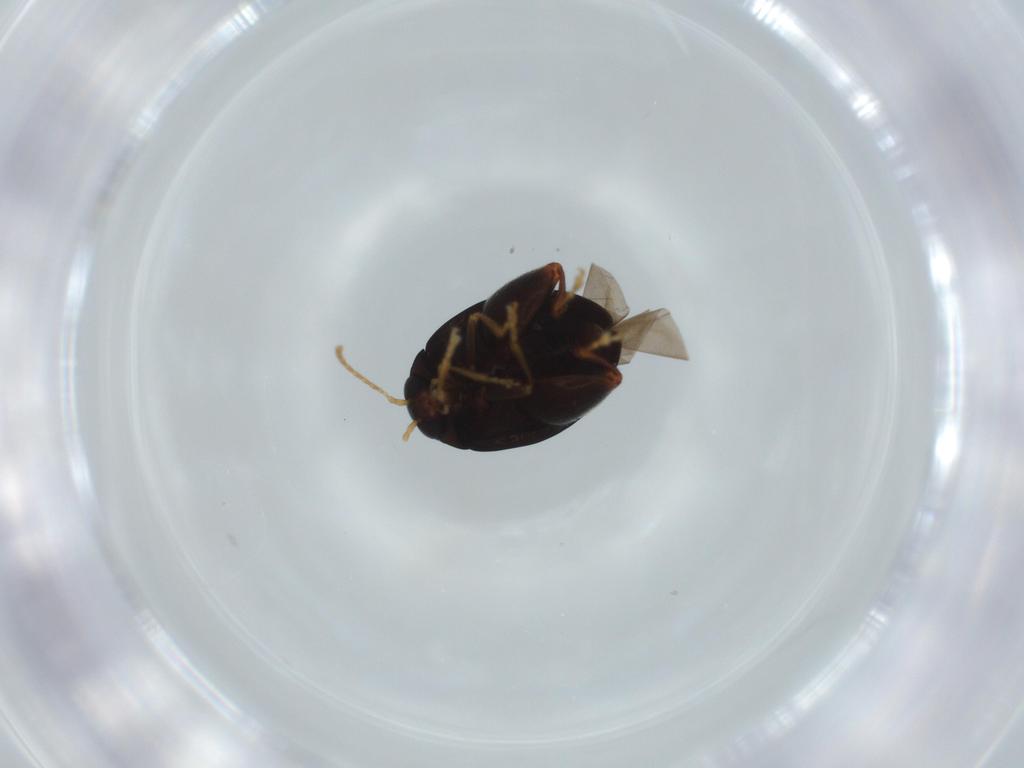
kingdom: Animalia
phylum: Arthropoda
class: Insecta
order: Coleoptera
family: Chrysomelidae
